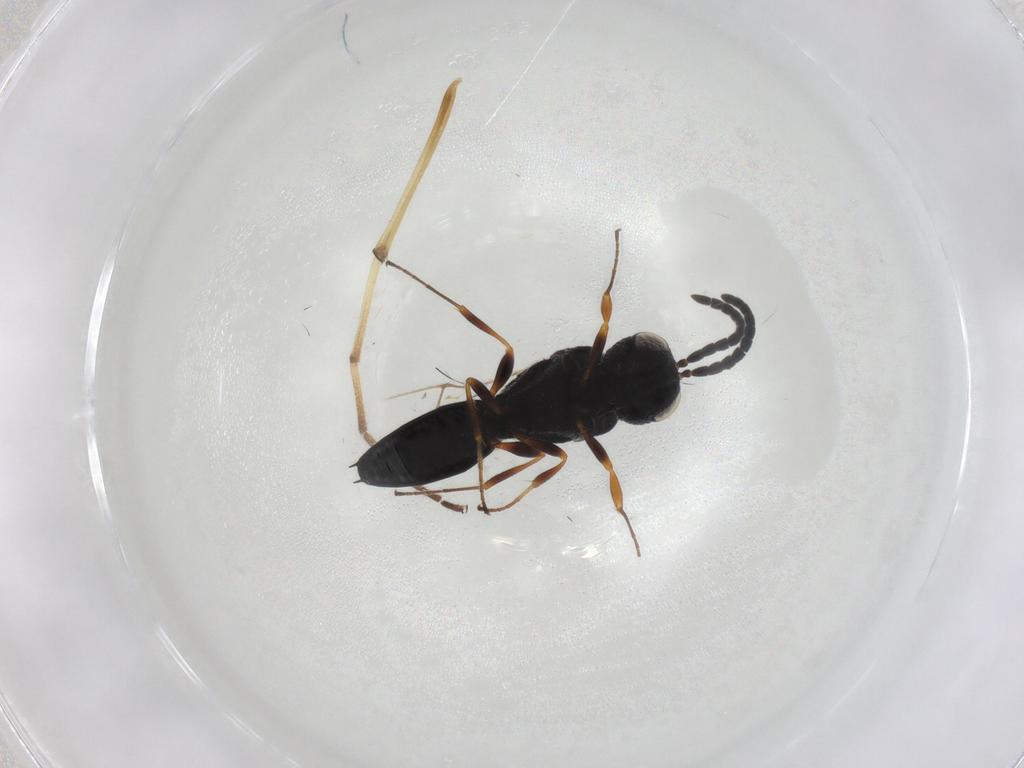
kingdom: Animalia
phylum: Arthropoda
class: Insecta
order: Hymenoptera
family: Scelionidae
